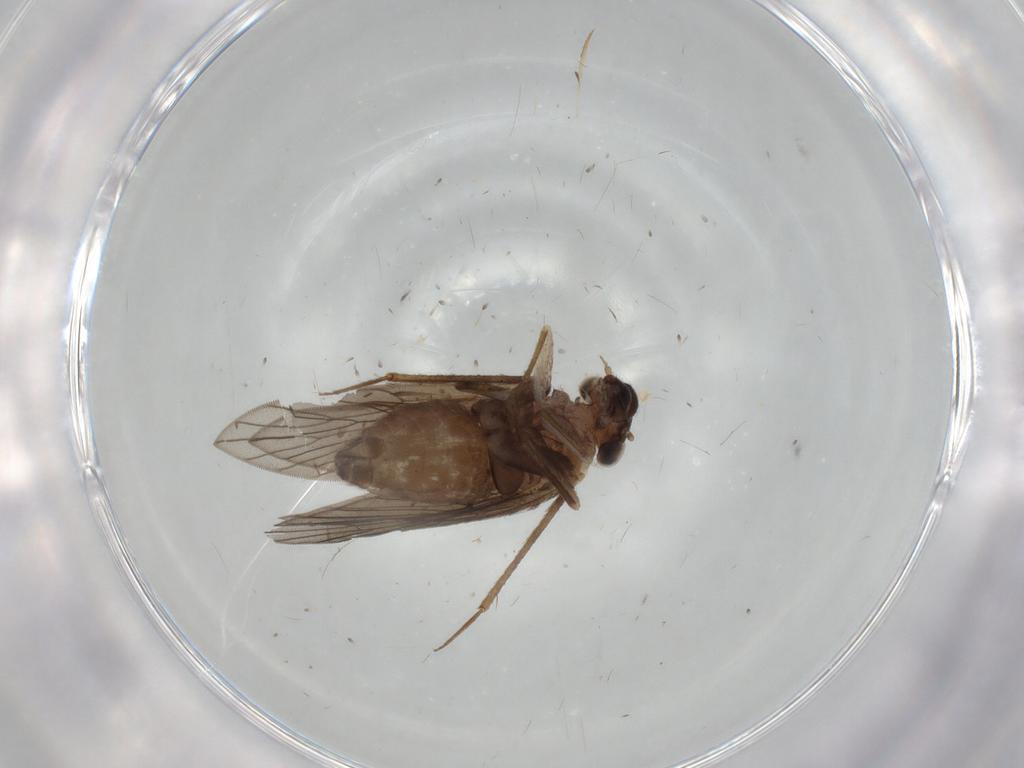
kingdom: Animalia
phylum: Arthropoda
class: Insecta
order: Psocodea
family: Lepidopsocidae
